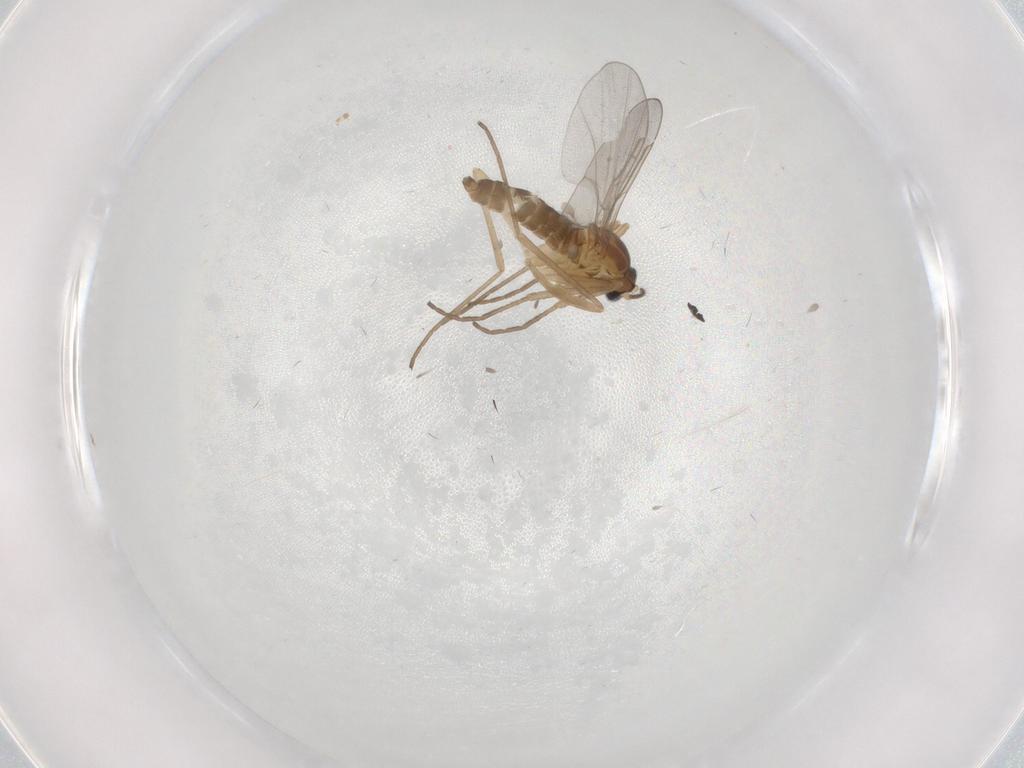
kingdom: Animalia
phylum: Arthropoda
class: Insecta
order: Diptera
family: Cecidomyiidae
